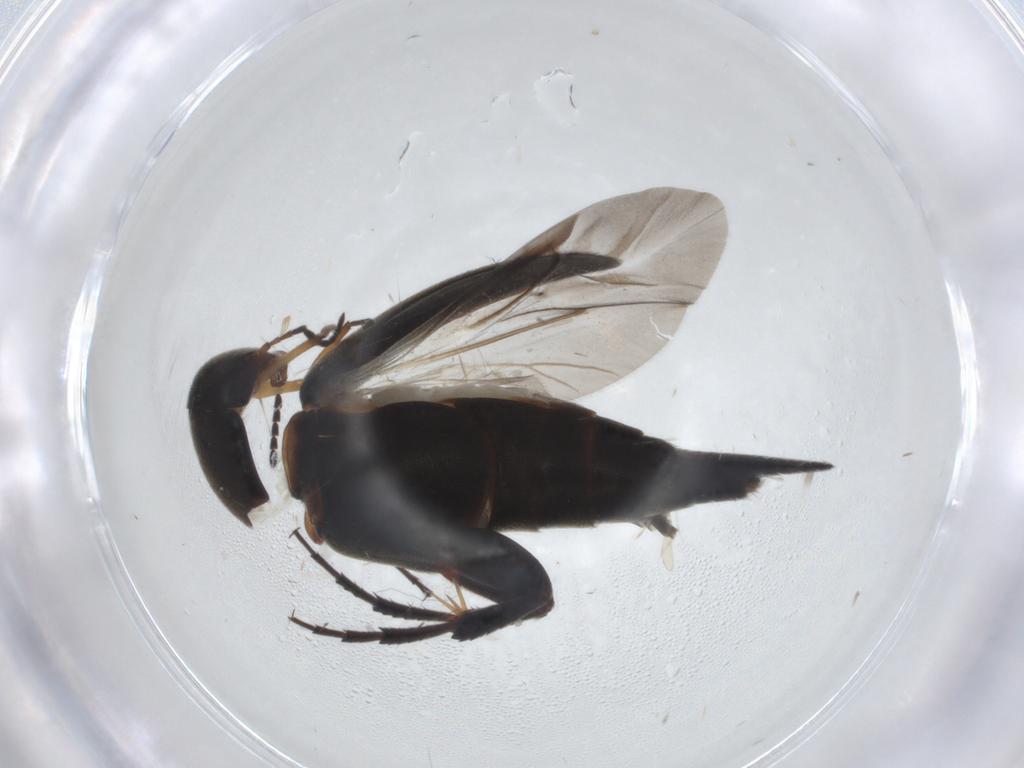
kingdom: Animalia
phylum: Arthropoda
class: Insecta
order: Coleoptera
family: Mordellidae
